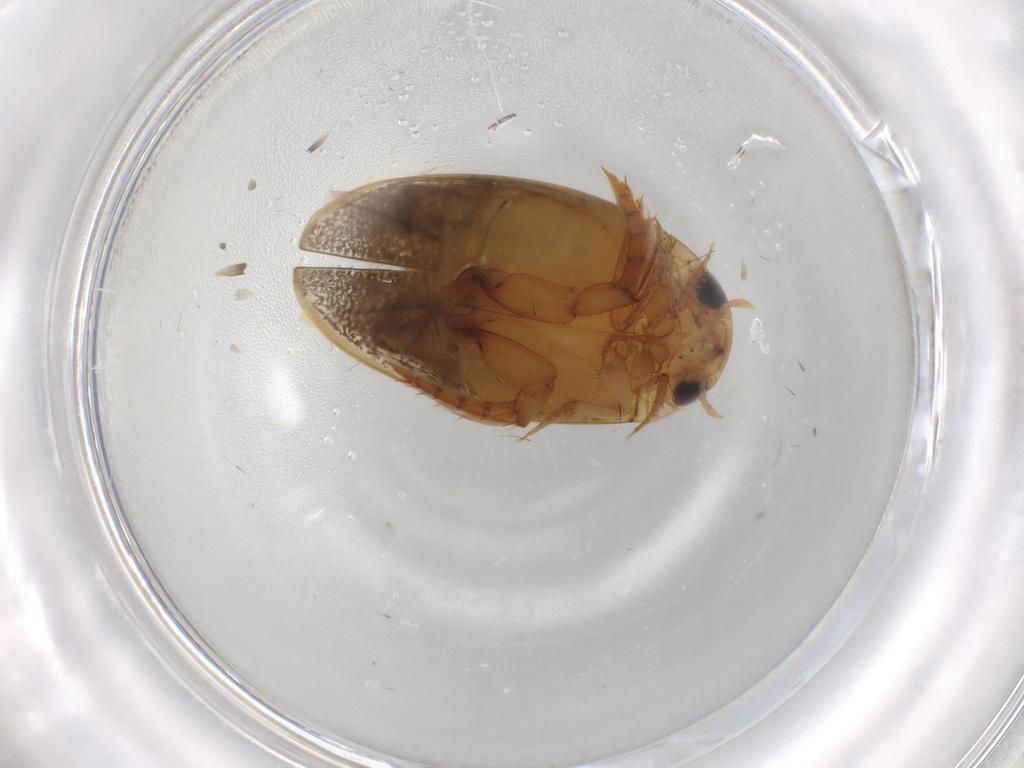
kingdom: Animalia
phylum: Arthropoda
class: Insecta
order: Coleoptera
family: Dytiscidae
